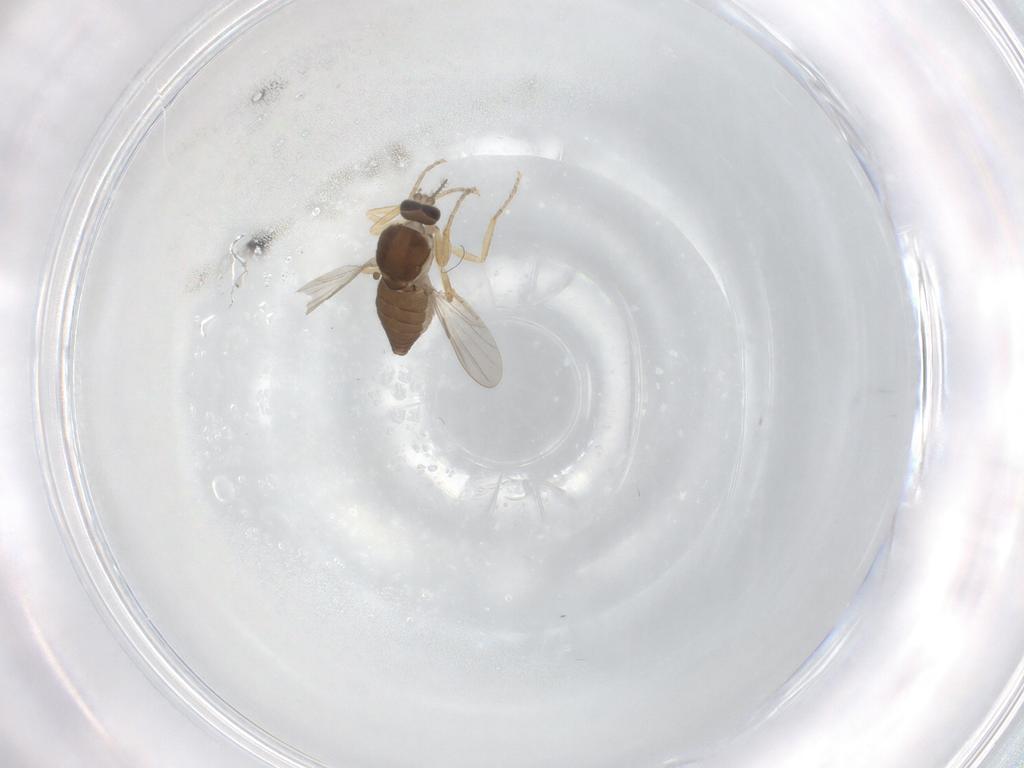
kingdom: Animalia
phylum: Arthropoda
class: Insecta
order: Diptera
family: Ceratopogonidae
